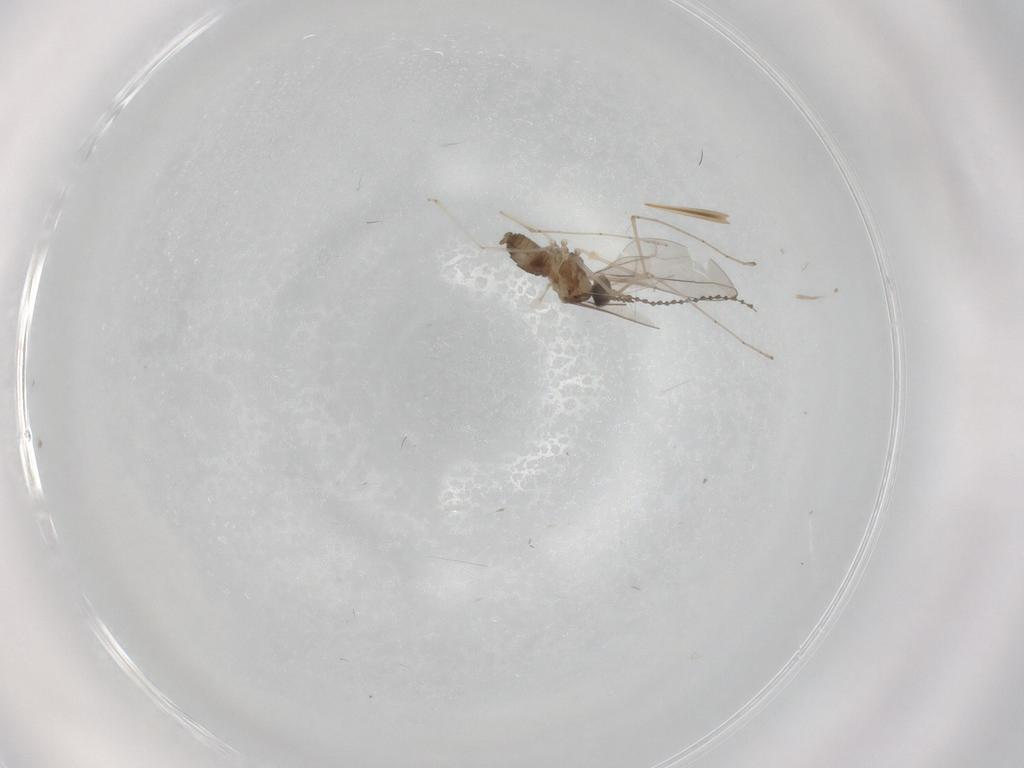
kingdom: Animalia
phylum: Arthropoda
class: Insecta
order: Diptera
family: Cecidomyiidae
